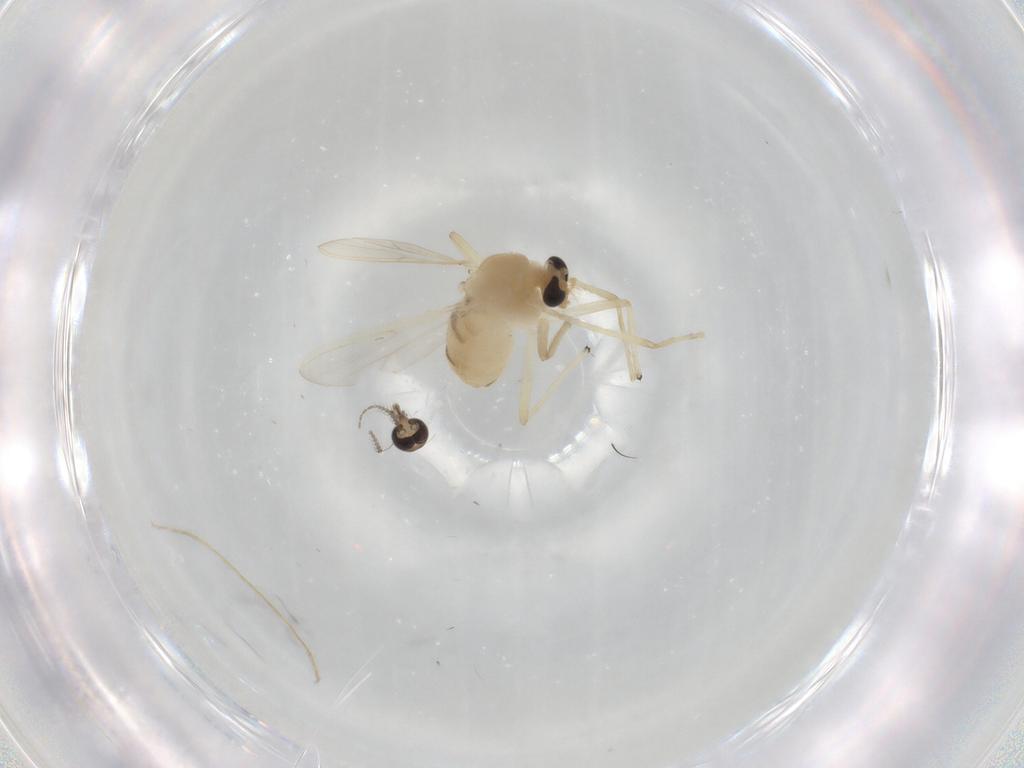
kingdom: Animalia
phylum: Arthropoda
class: Insecta
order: Diptera
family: Chironomidae
